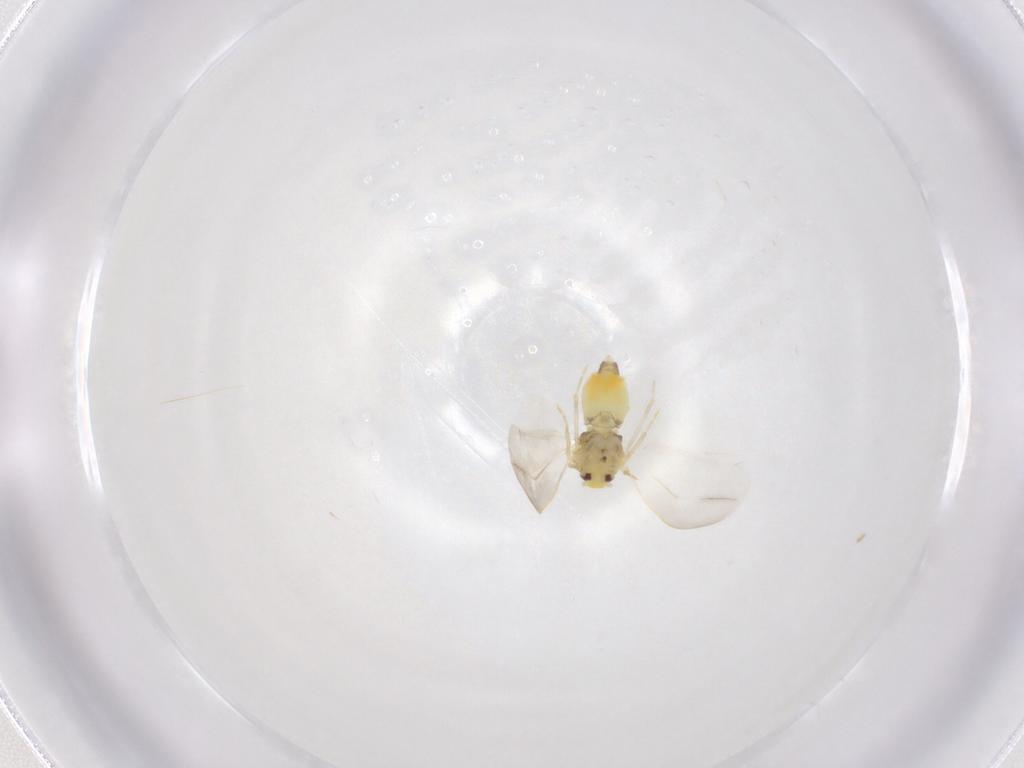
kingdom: Animalia
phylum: Arthropoda
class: Insecta
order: Hemiptera
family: Aleyrodidae
